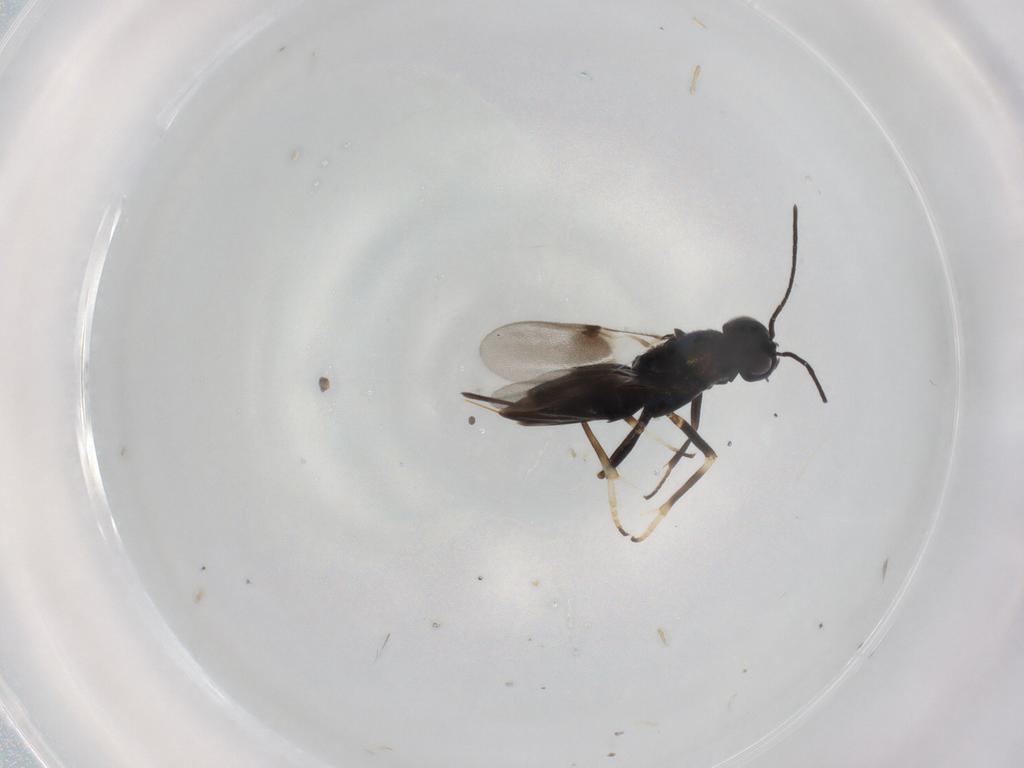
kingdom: Animalia
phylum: Arthropoda
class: Insecta
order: Hymenoptera
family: Encyrtidae
